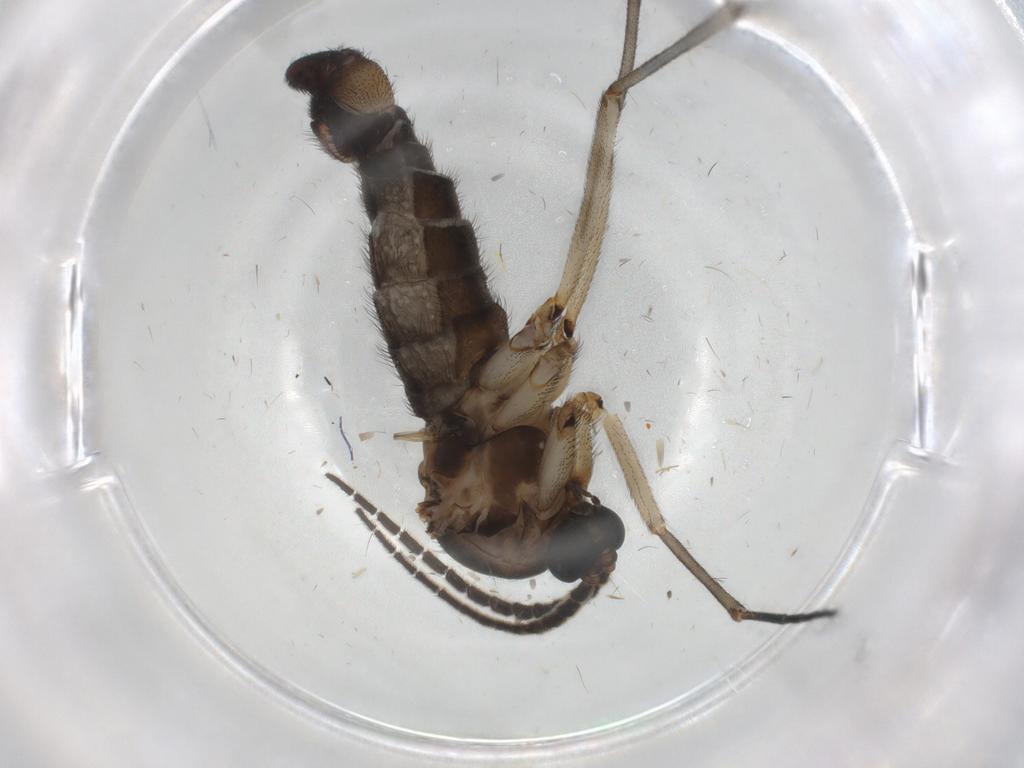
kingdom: Animalia
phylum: Arthropoda
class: Insecta
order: Diptera
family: Sciaridae
